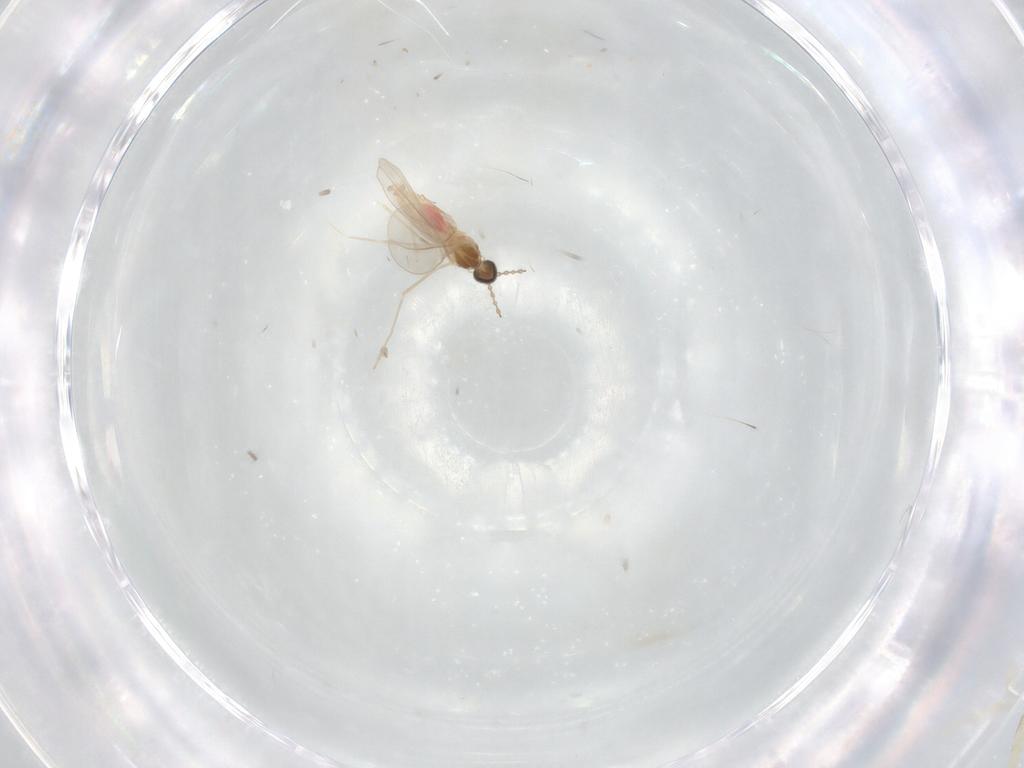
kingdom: Animalia
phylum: Arthropoda
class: Insecta
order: Diptera
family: Cecidomyiidae
